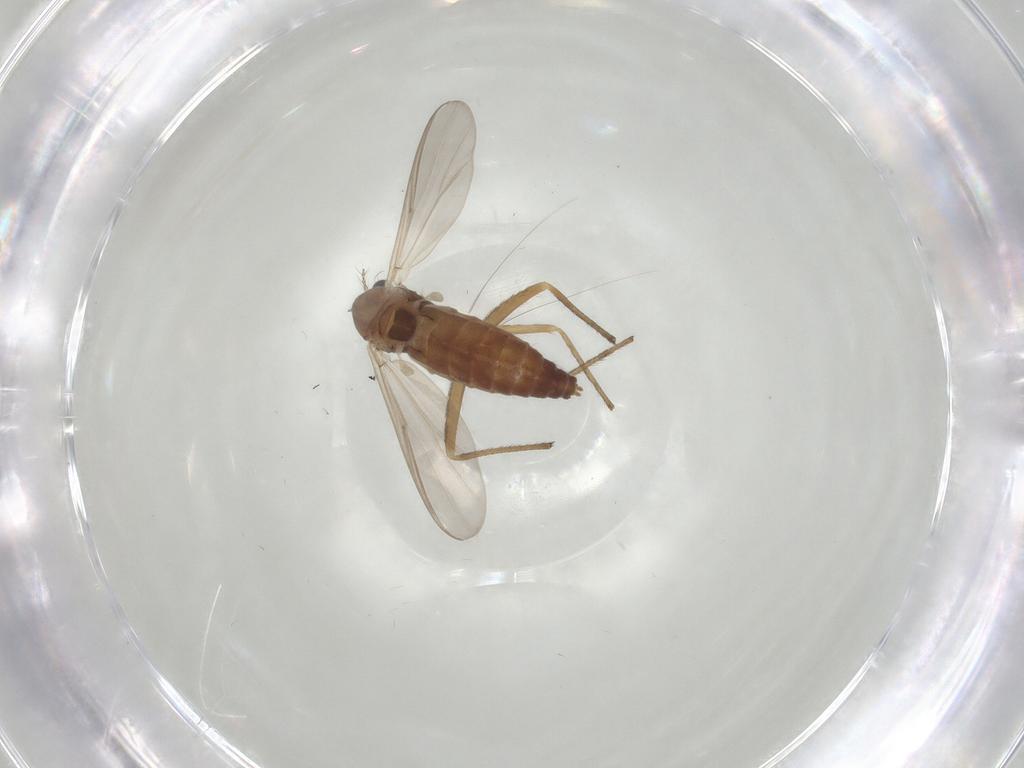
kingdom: Animalia
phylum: Arthropoda
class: Insecta
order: Diptera
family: Chironomidae
